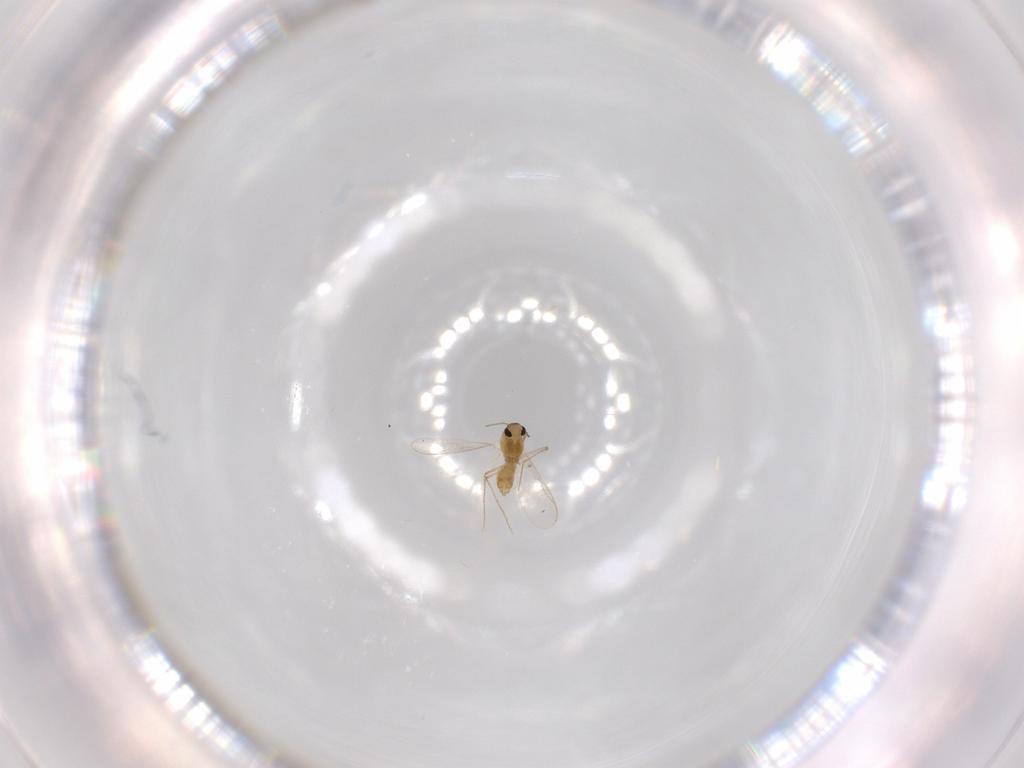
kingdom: Animalia
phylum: Arthropoda
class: Insecta
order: Diptera
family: Chironomidae
